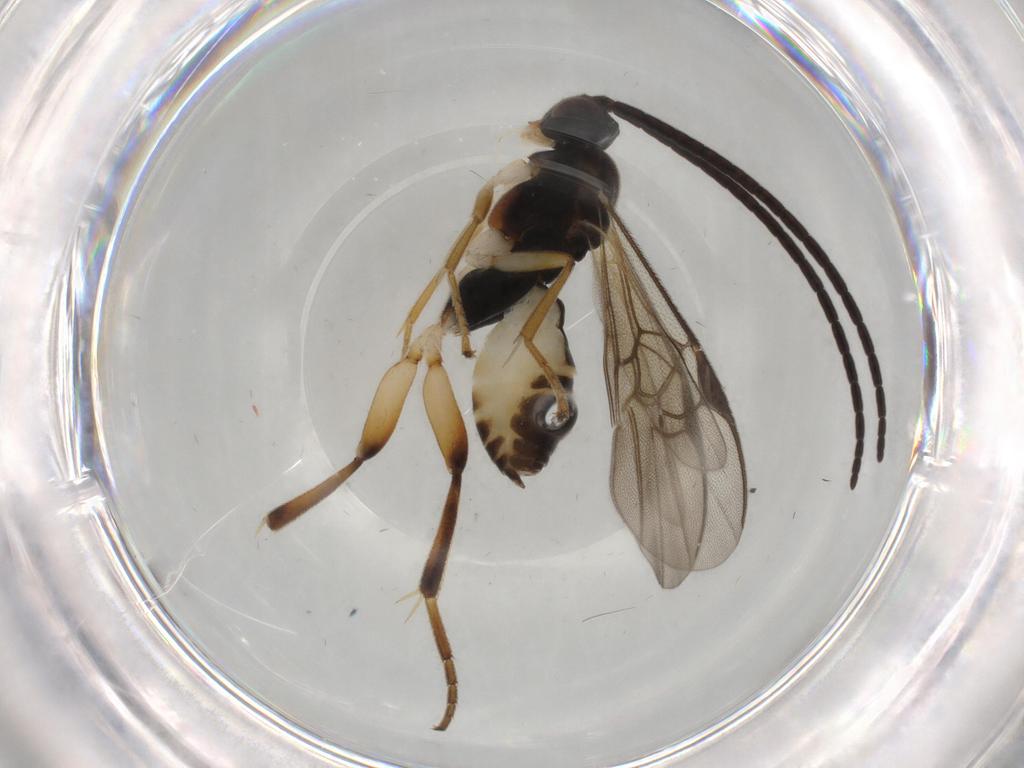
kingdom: Animalia
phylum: Arthropoda
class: Insecta
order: Hymenoptera
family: Braconidae
